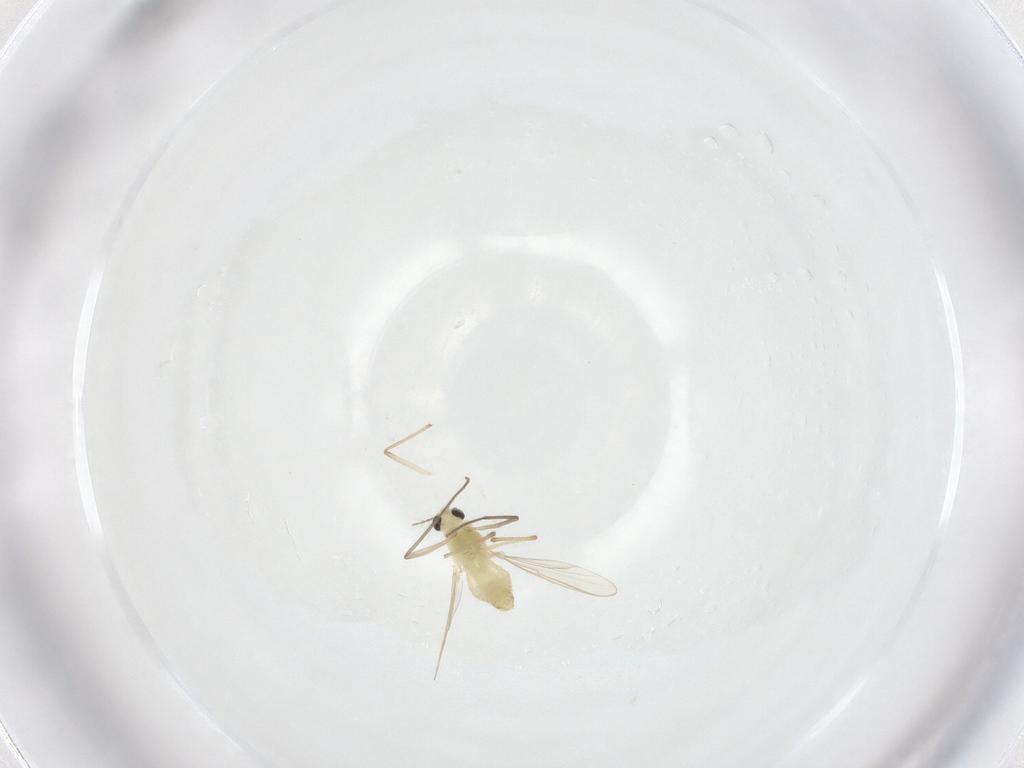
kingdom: Animalia
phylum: Arthropoda
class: Insecta
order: Diptera
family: Chironomidae
